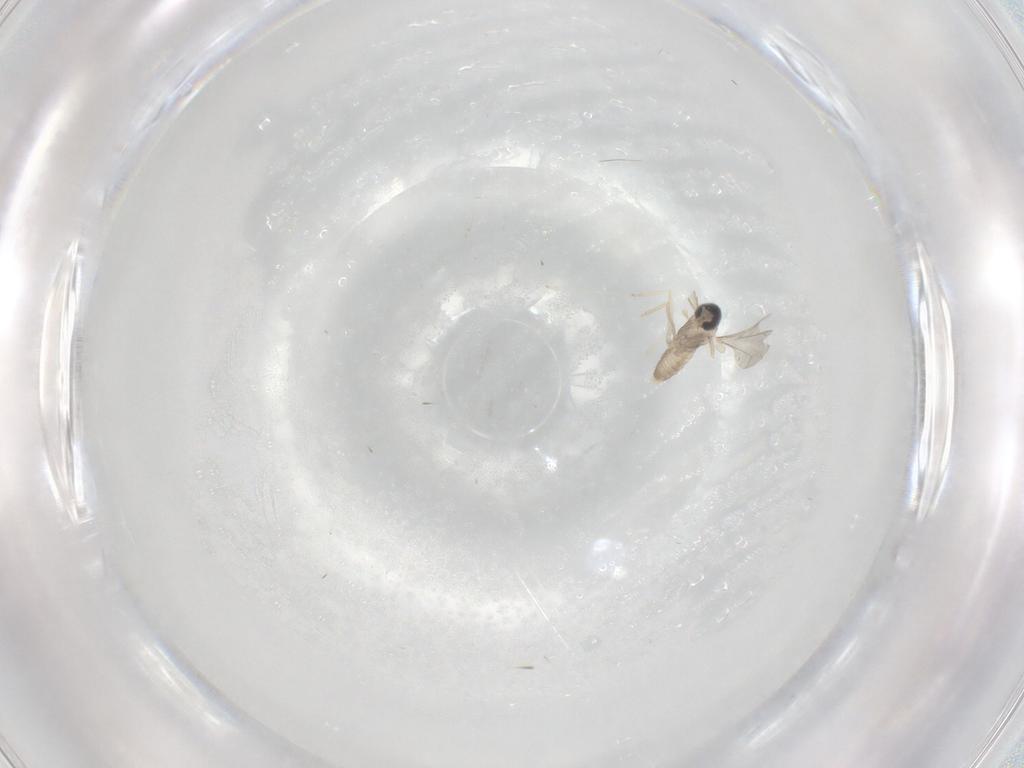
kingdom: Animalia
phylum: Arthropoda
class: Insecta
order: Diptera
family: Cecidomyiidae
